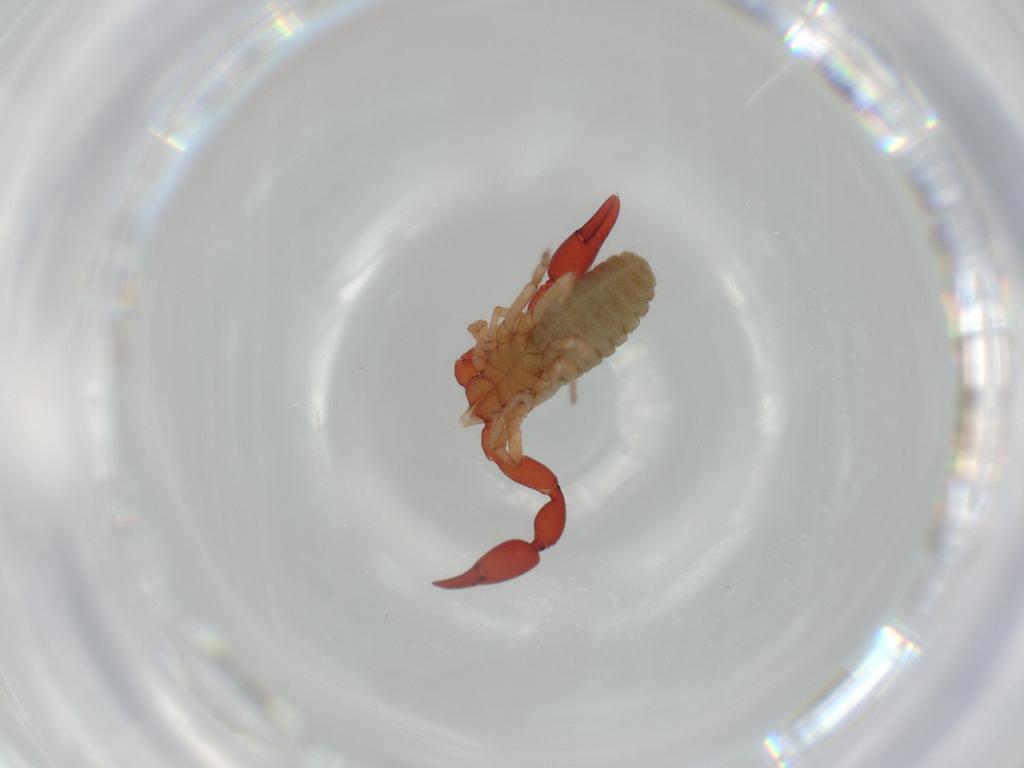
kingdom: Animalia
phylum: Arthropoda
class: Arachnida
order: Pseudoscorpiones
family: Chernetidae
